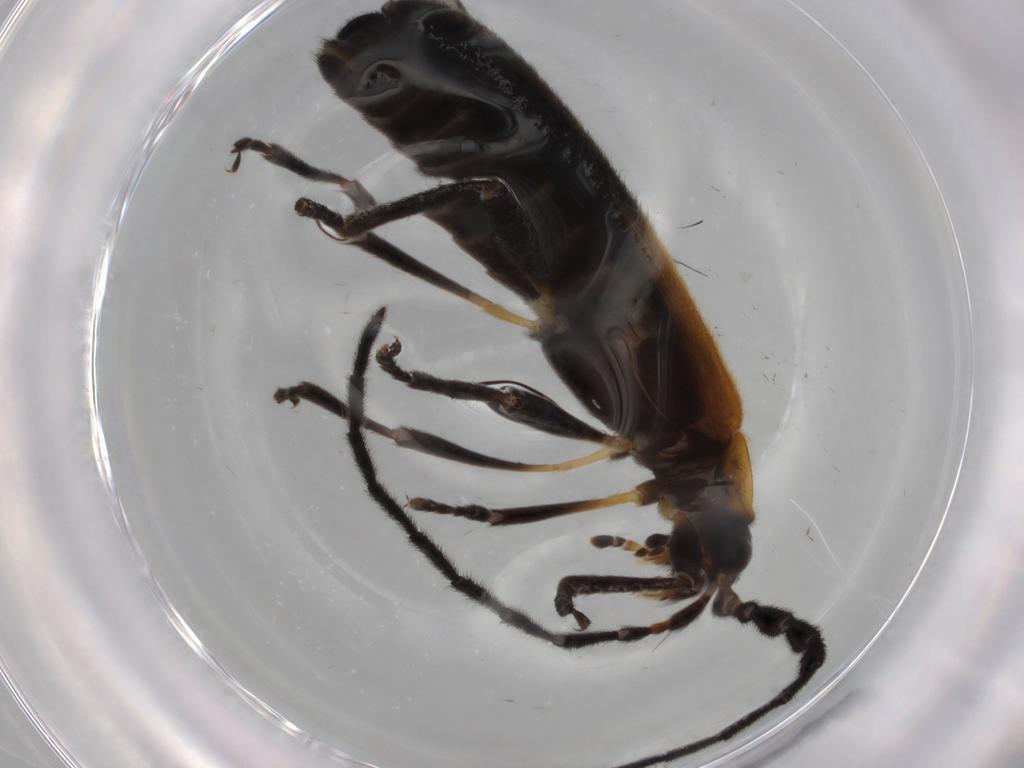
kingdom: Animalia
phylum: Arthropoda
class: Insecta
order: Coleoptera
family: Lycidae
